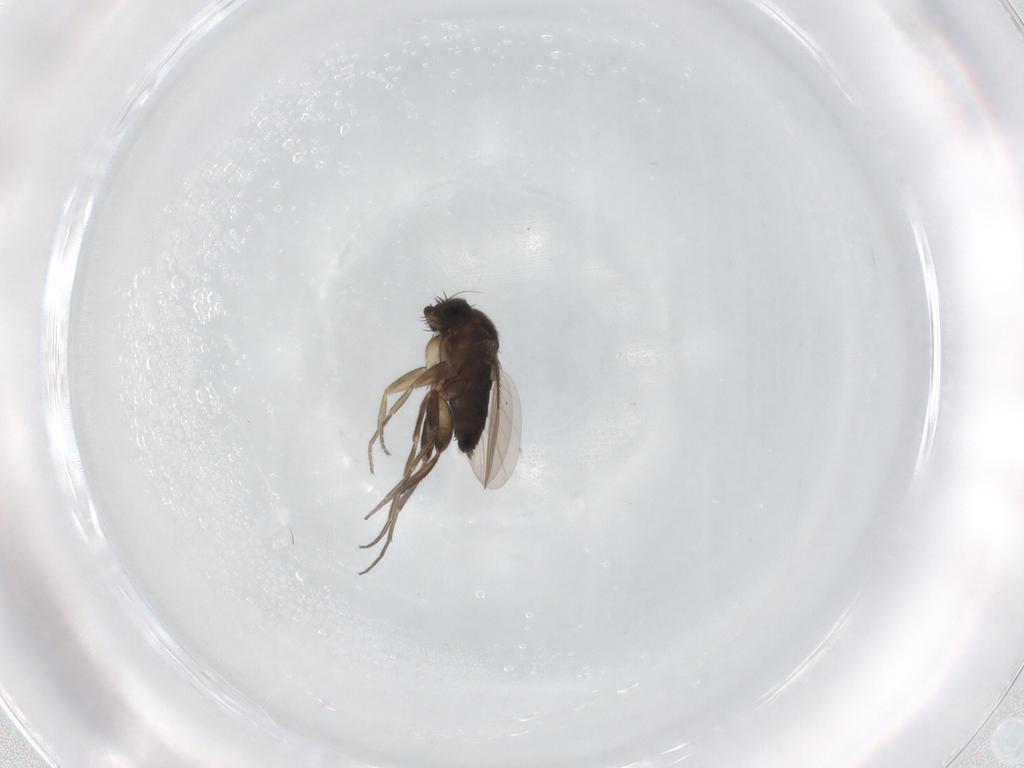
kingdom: Animalia
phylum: Arthropoda
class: Insecta
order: Diptera
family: Phoridae
